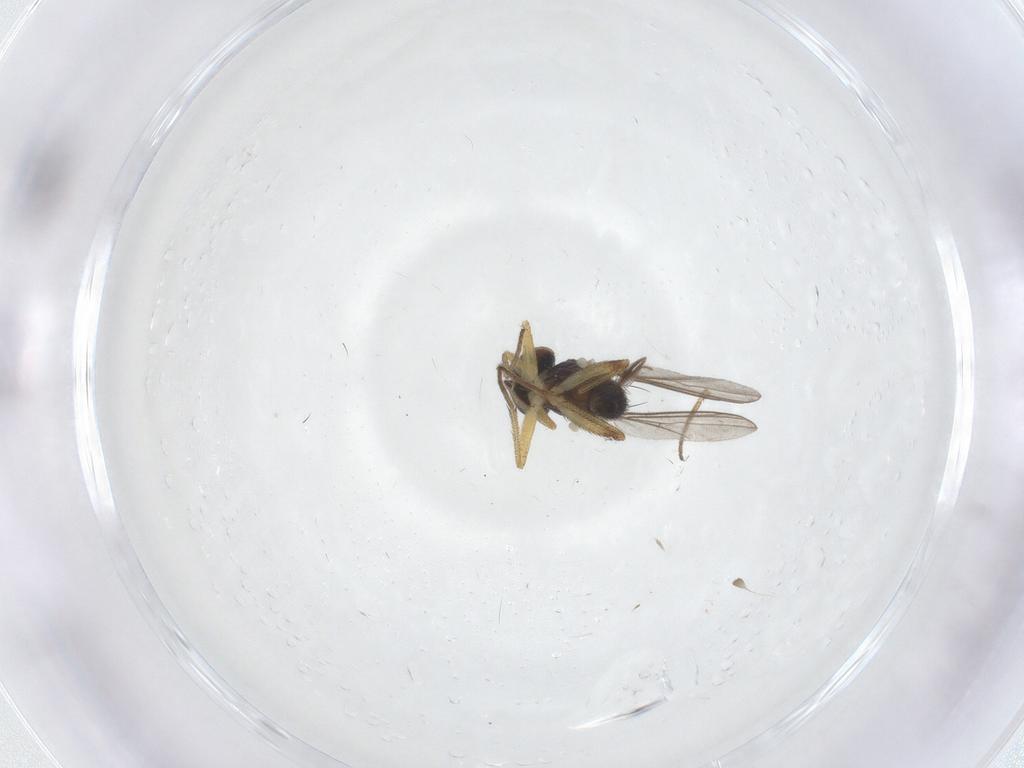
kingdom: Animalia
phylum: Arthropoda
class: Insecta
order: Diptera
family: Dolichopodidae
